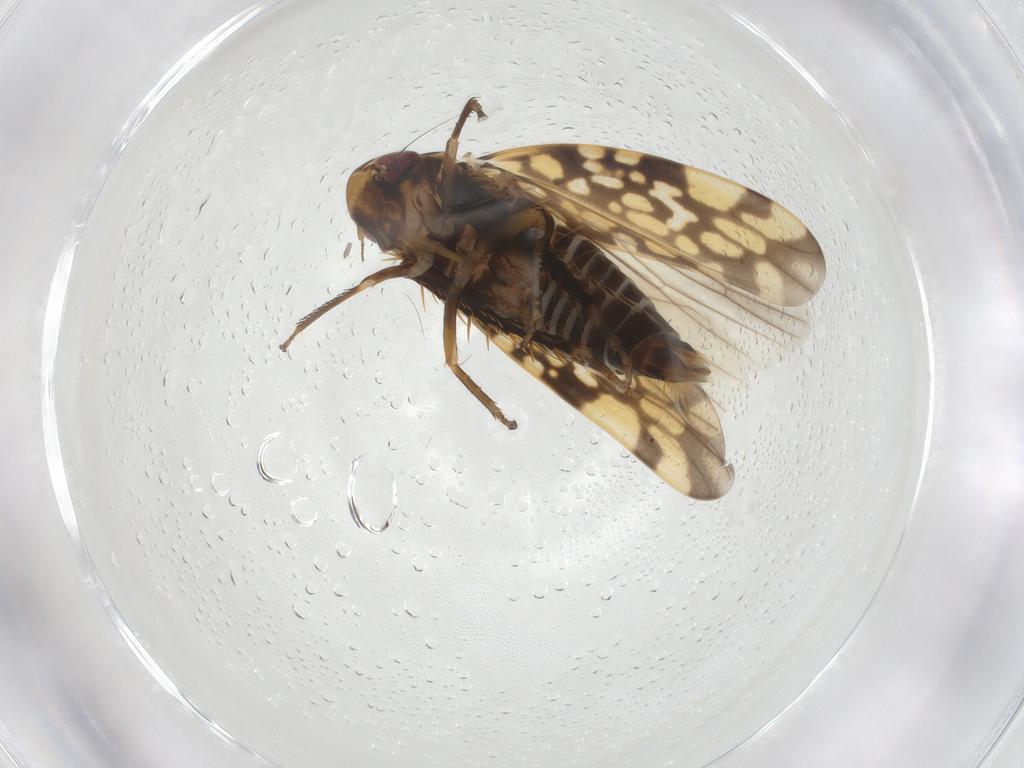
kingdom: Animalia
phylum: Arthropoda
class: Insecta
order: Hemiptera
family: Cicadellidae
